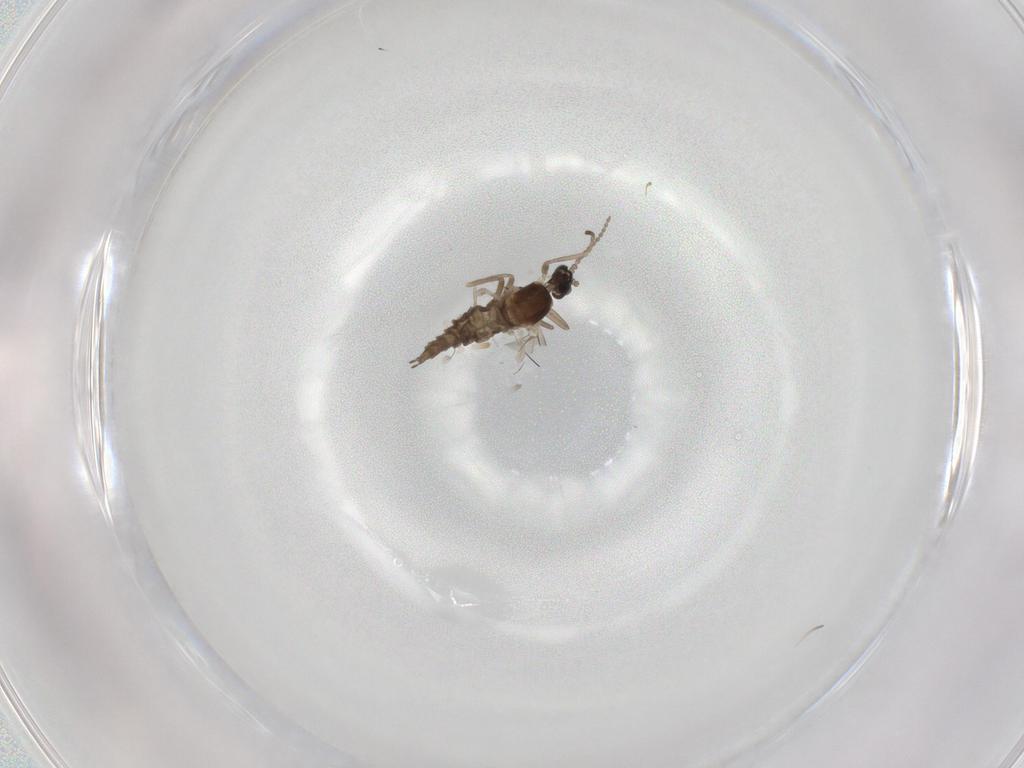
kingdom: Animalia
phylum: Arthropoda
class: Insecta
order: Diptera
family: Cecidomyiidae
